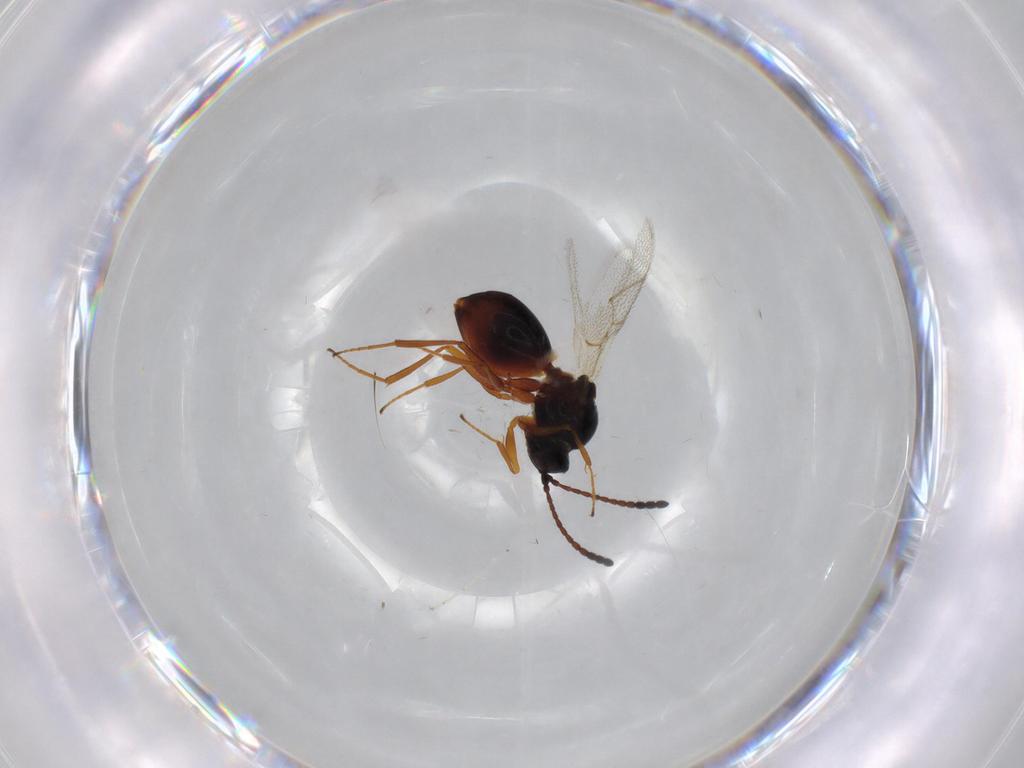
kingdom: Animalia
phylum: Arthropoda
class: Insecta
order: Hymenoptera
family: Figitidae
